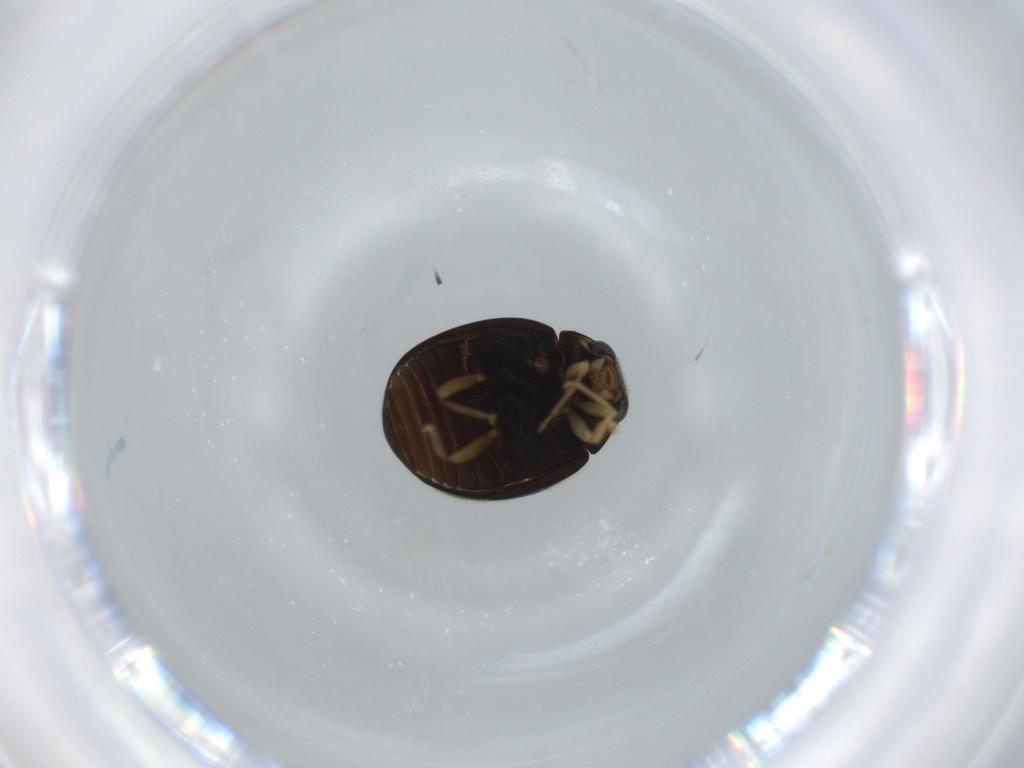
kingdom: Animalia
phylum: Arthropoda
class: Insecta
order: Coleoptera
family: Coccinellidae
